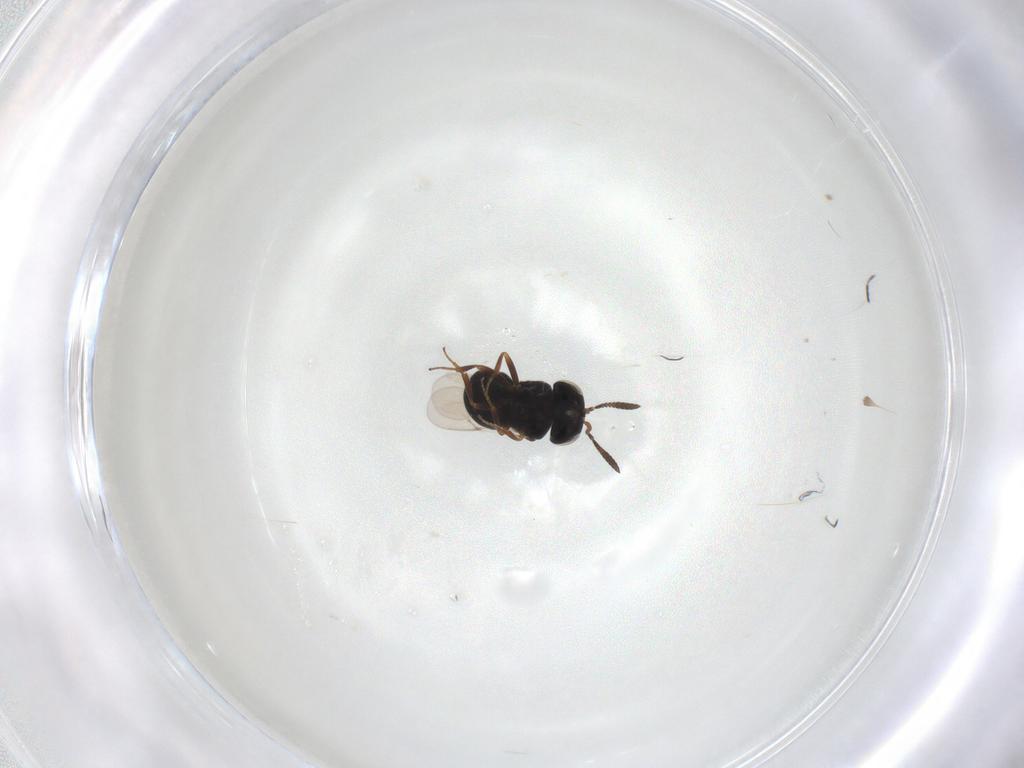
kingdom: Animalia
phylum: Arthropoda
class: Insecta
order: Hymenoptera
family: Scelionidae
